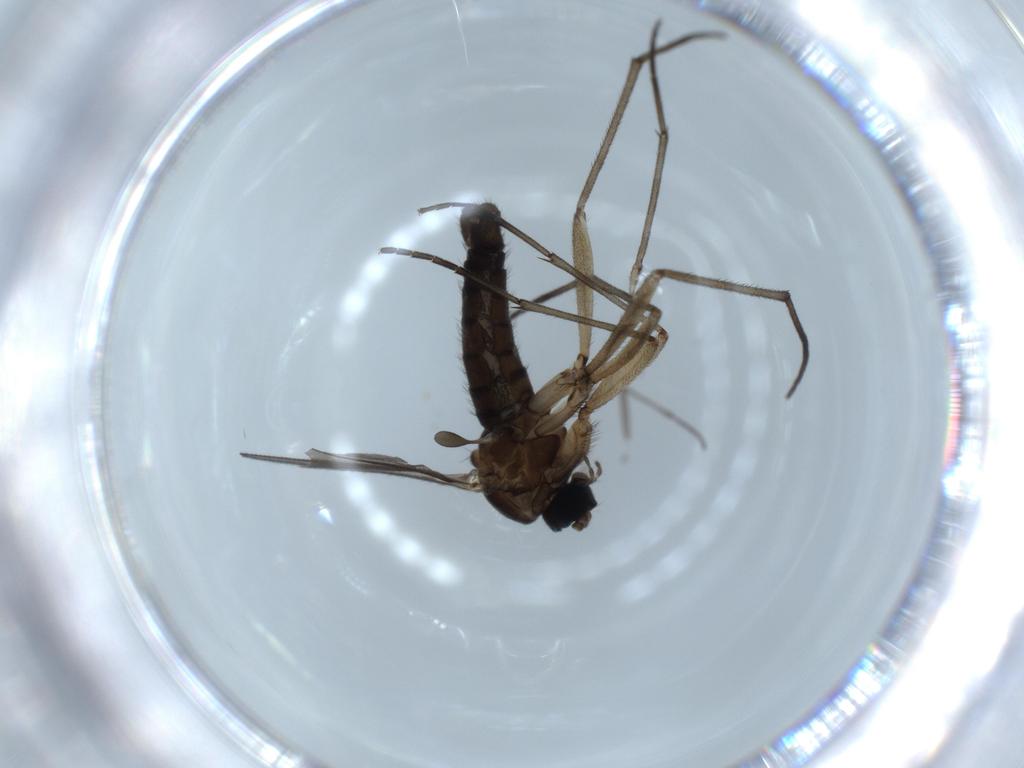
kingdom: Animalia
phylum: Arthropoda
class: Insecta
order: Diptera
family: Sciaridae
